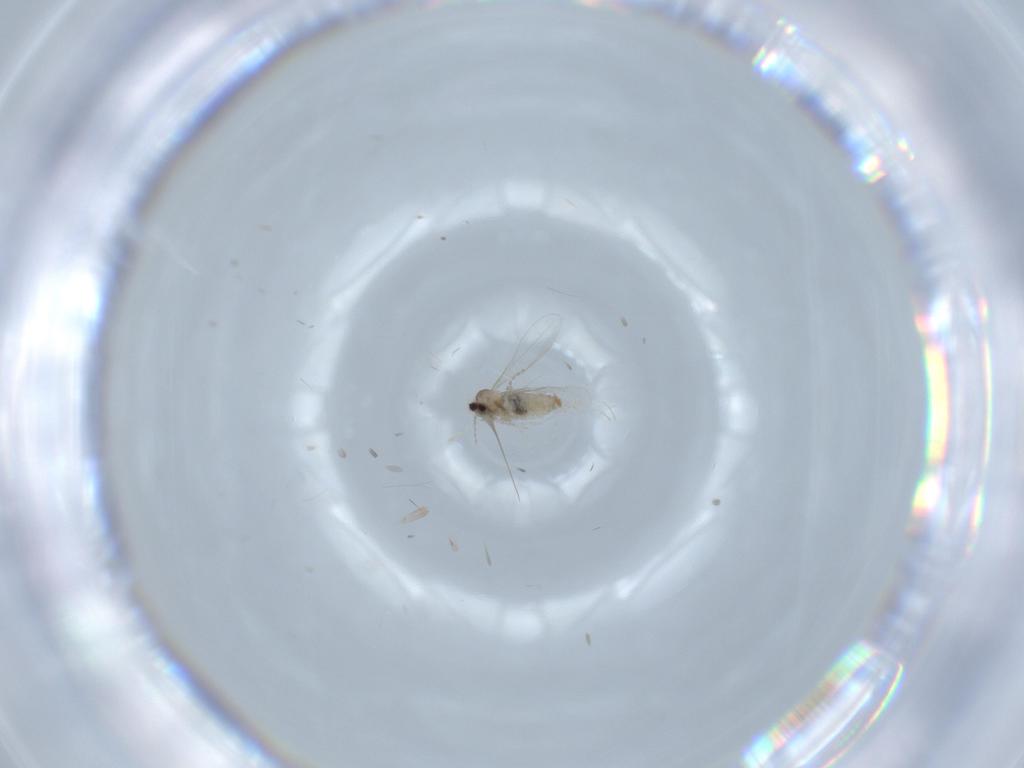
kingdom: Animalia
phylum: Arthropoda
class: Insecta
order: Diptera
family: Cecidomyiidae
